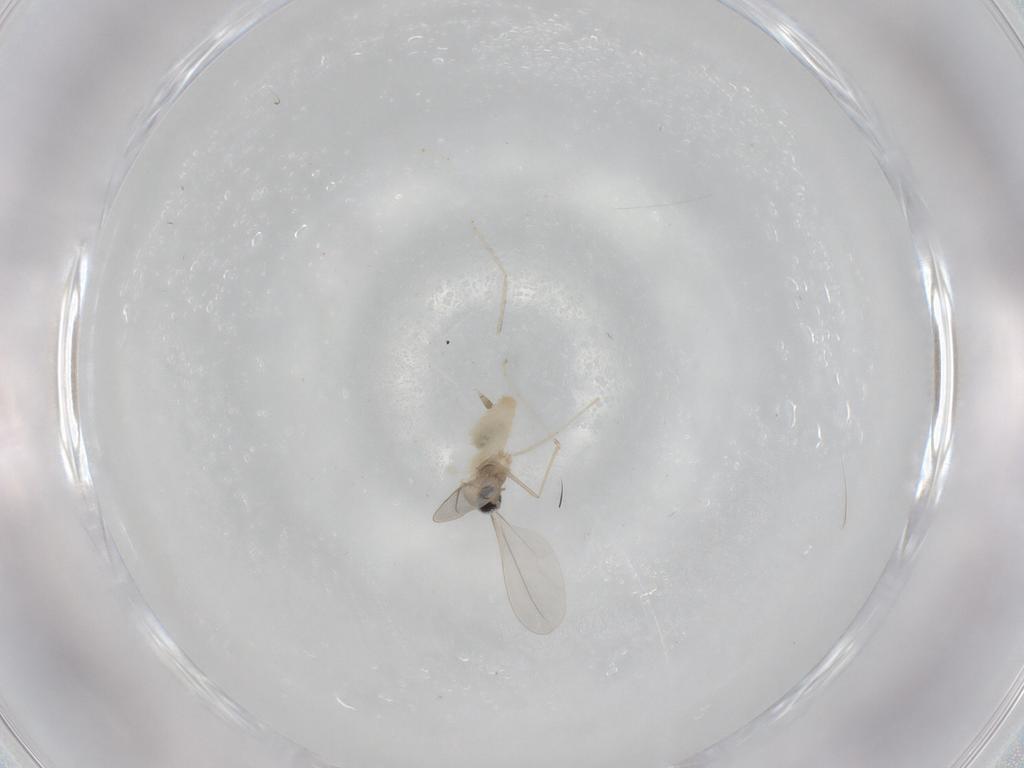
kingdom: Animalia
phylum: Arthropoda
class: Insecta
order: Diptera
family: Cecidomyiidae
